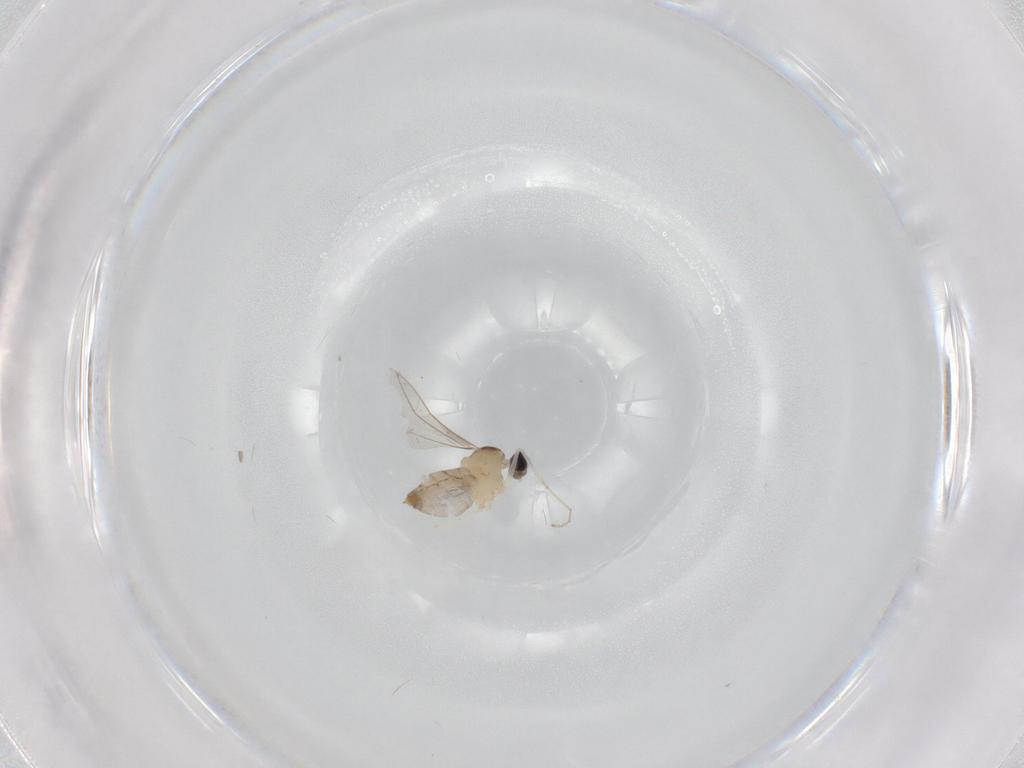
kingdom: Animalia
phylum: Arthropoda
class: Insecta
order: Diptera
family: Cecidomyiidae
